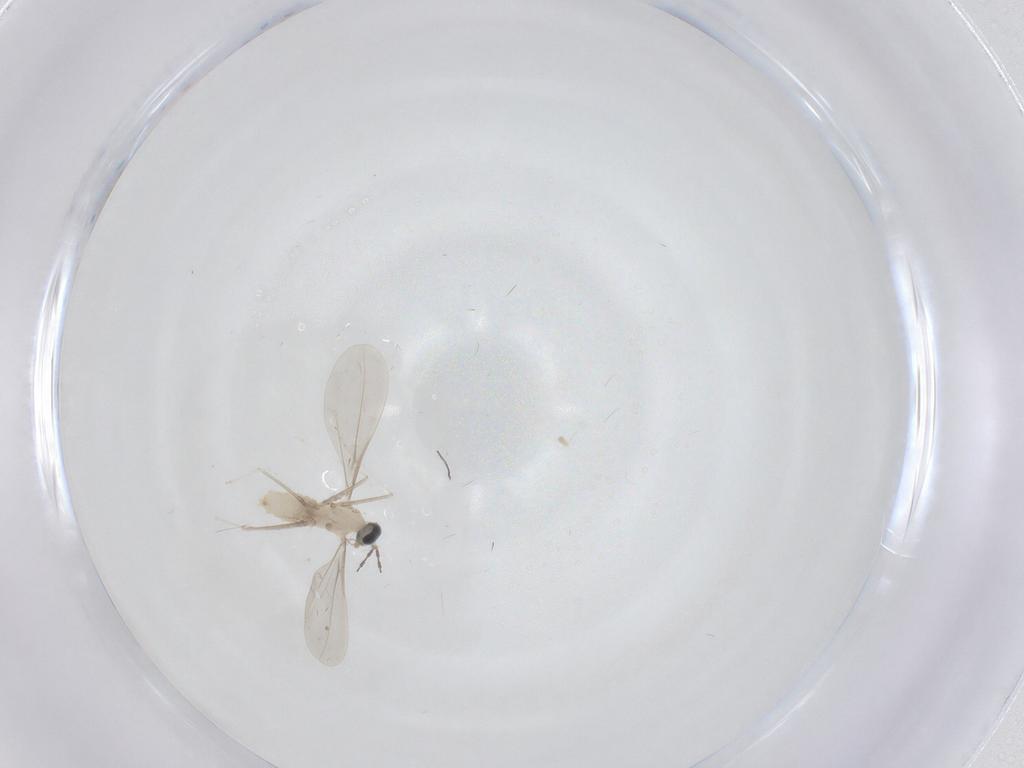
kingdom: Animalia
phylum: Arthropoda
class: Insecta
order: Diptera
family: Cecidomyiidae
